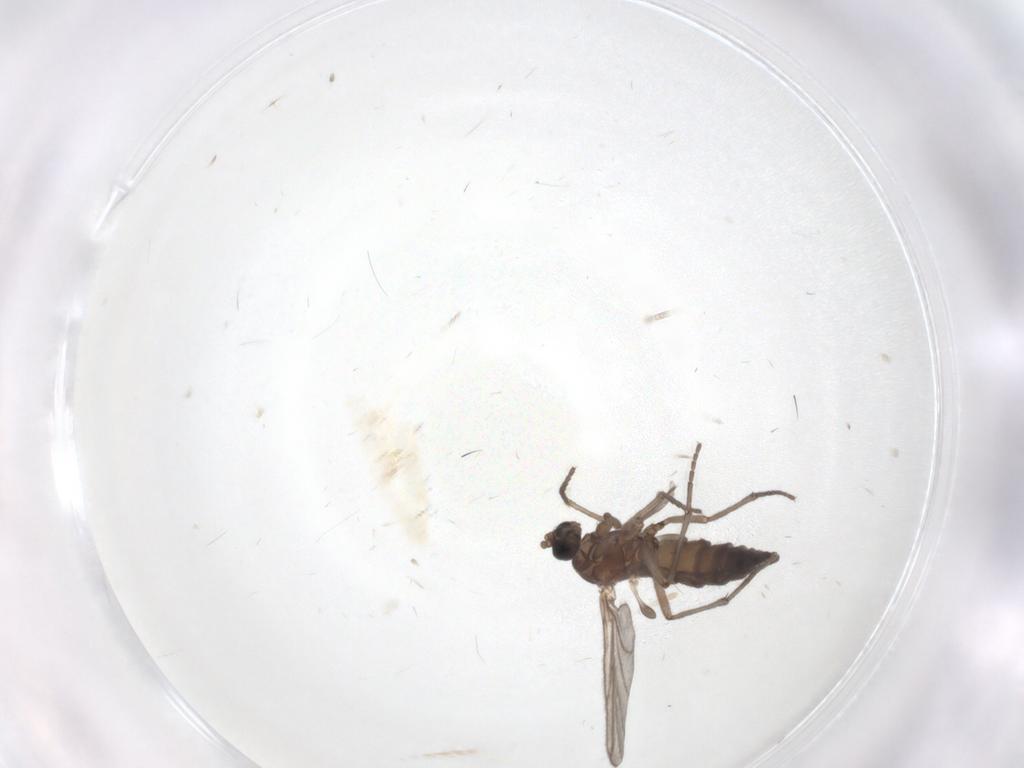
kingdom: Animalia
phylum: Arthropoda
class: Insecta
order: Diptera
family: Sciaridae
